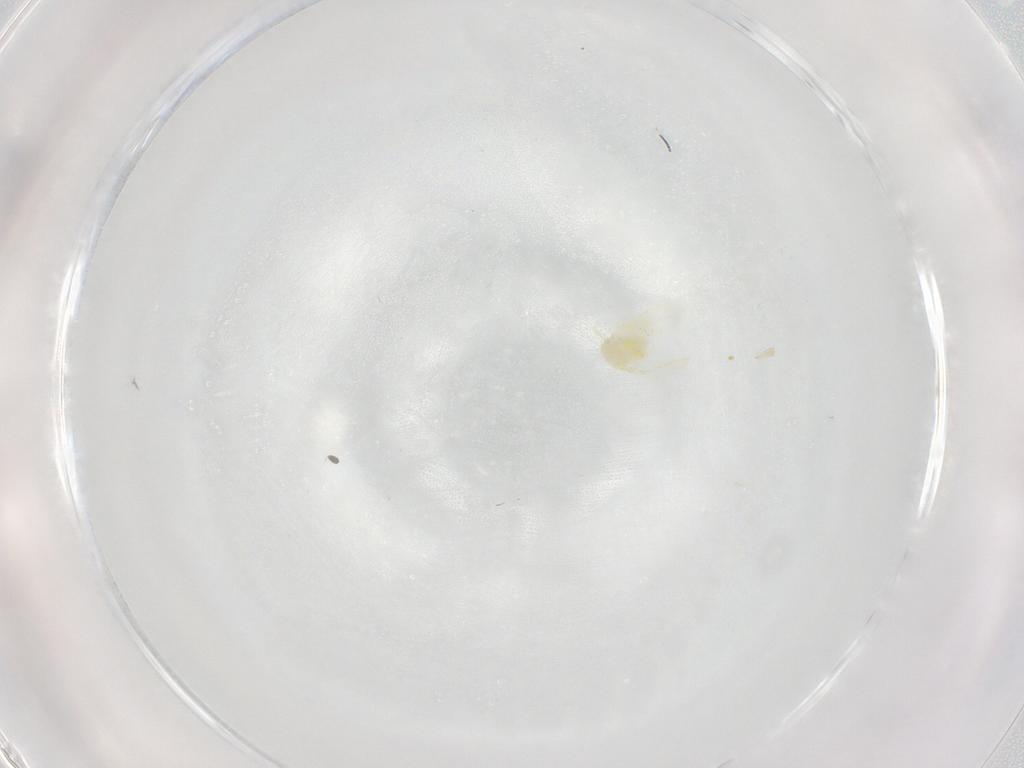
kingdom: Animalia
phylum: Arthropoda
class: Insecta
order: Hemiptera
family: Aleyrodidae
